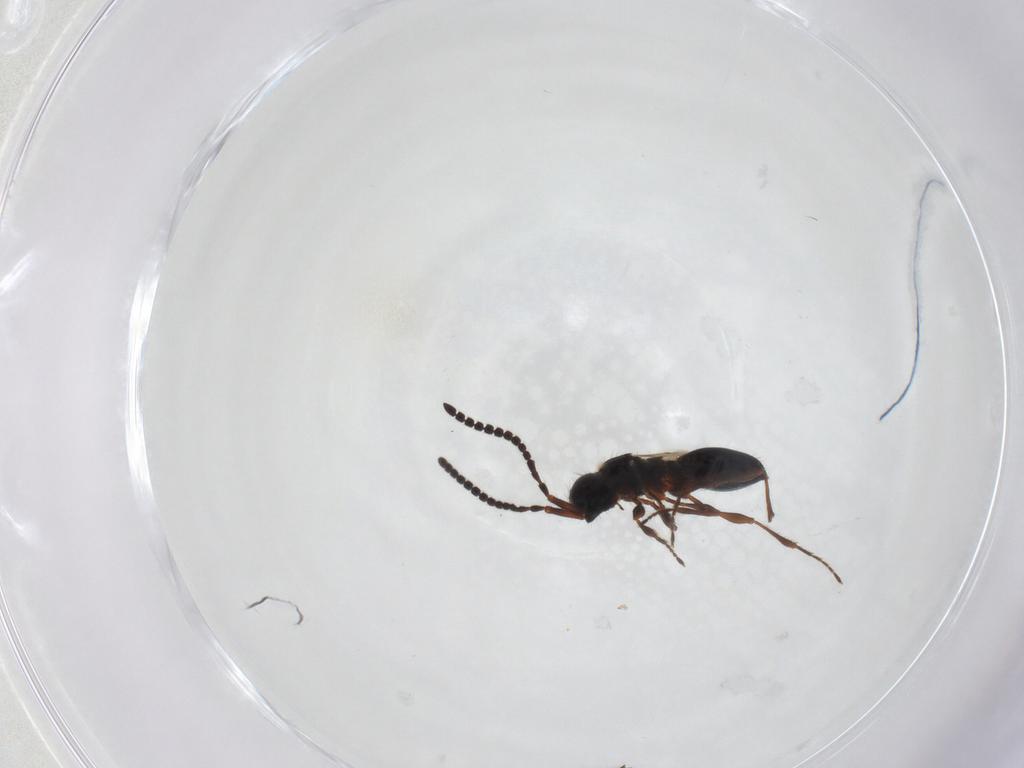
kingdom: Animalia
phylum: Arthropoda
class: Insecta
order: Hymenoptera
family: Diapriidae
